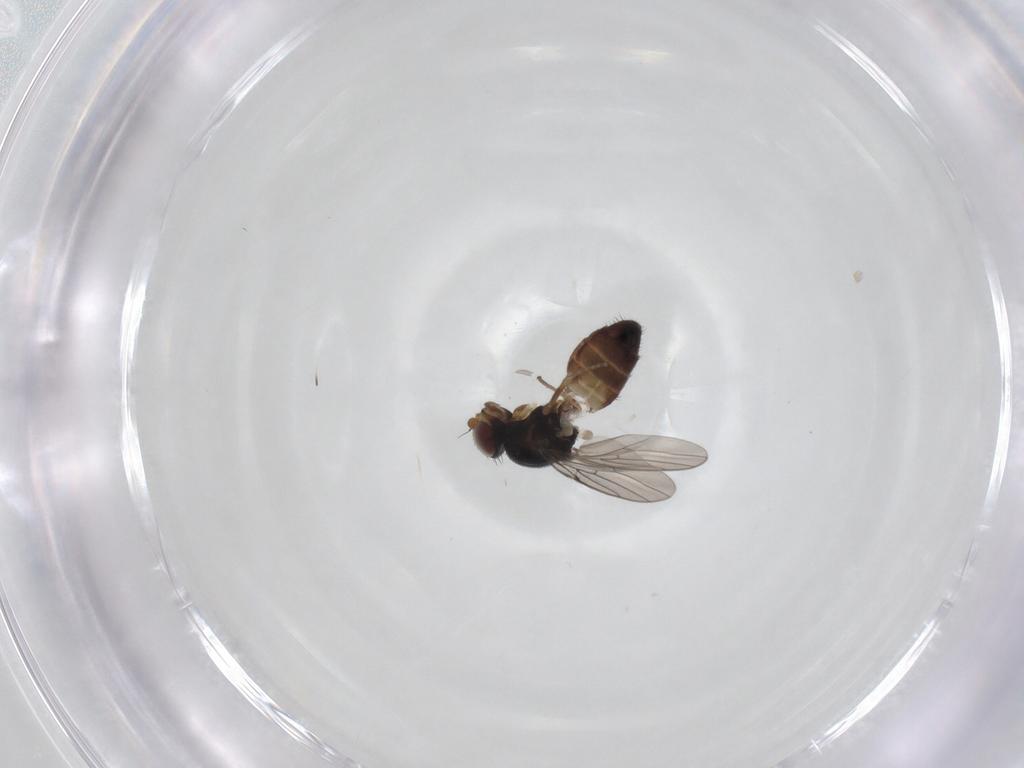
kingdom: Animalia
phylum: Arthropoda
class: Insecta
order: Diptera
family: Chloropidae
